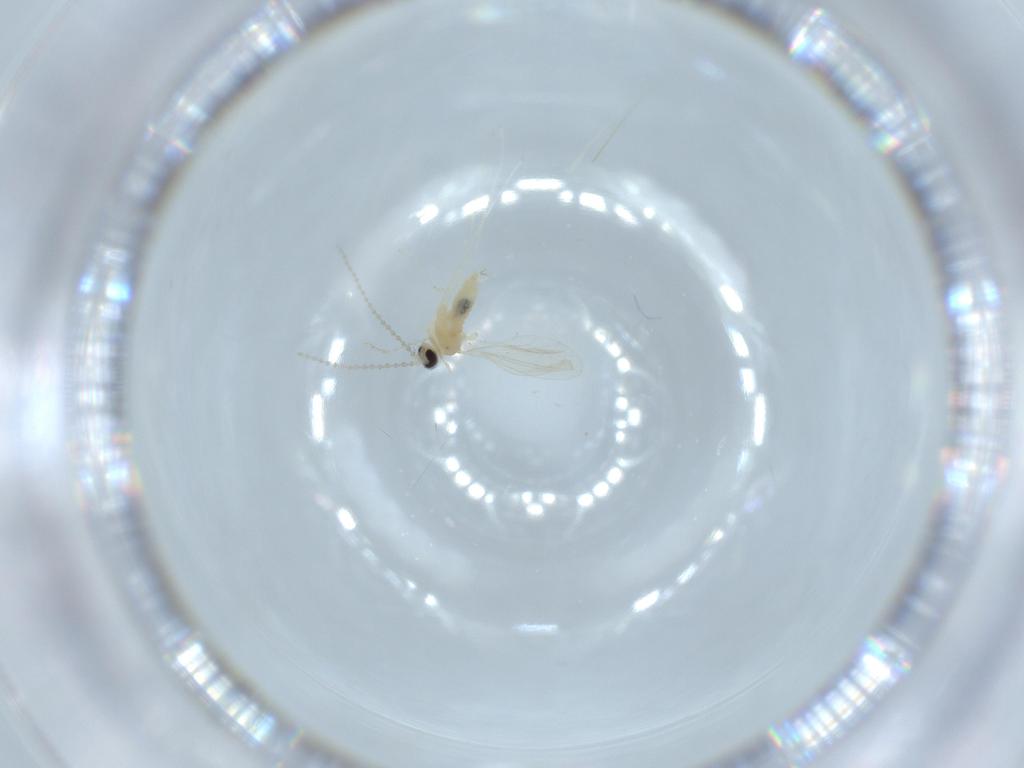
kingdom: Animalia
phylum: Arthropoda
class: Insecta
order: Diptera
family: Cecidomyiidae
